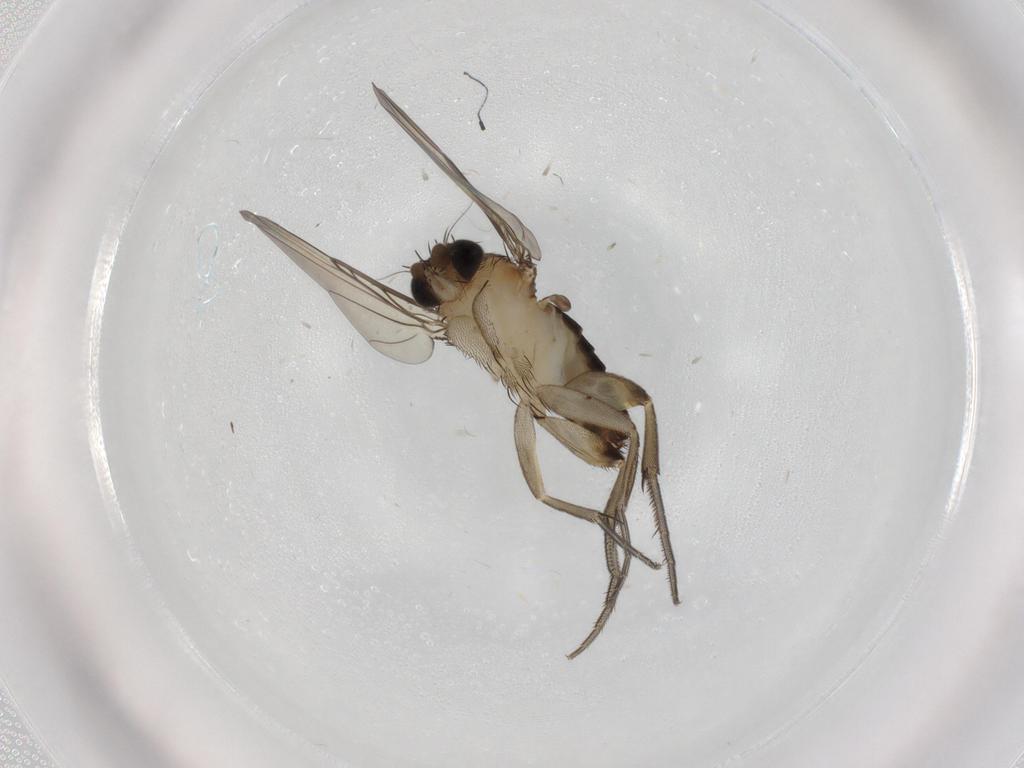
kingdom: Animalia
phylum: Arthropoda
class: Insecta
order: Diptera
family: Phoridae
